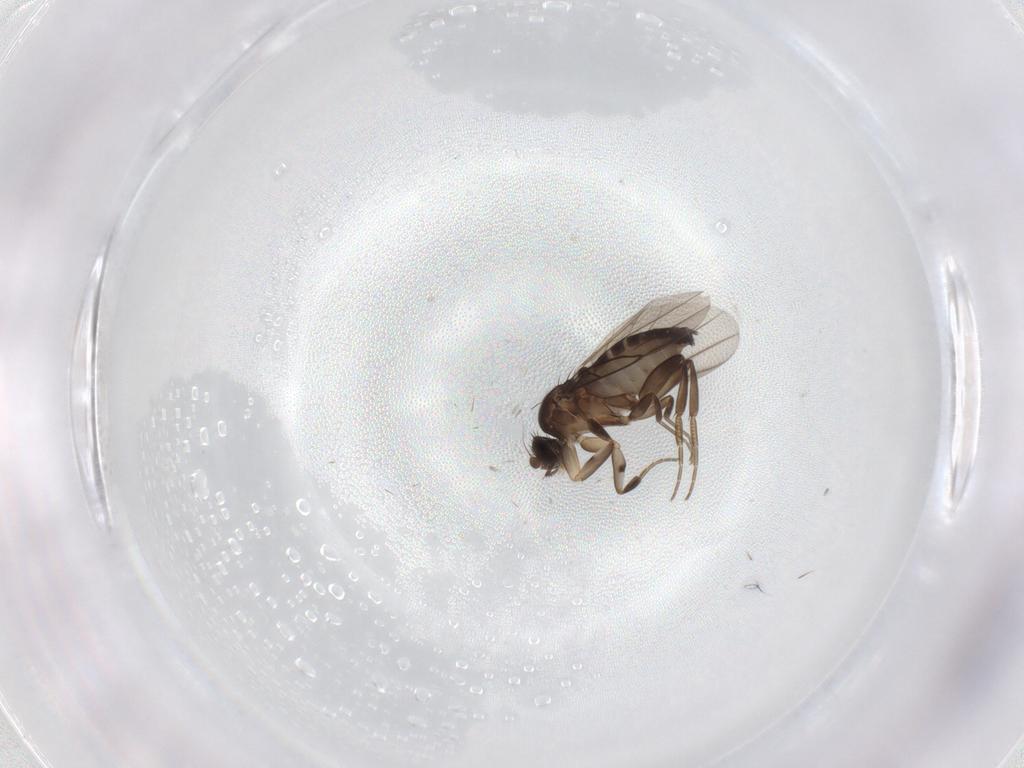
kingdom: Animalia
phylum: Arthropoda
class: Insecta
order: Diptera
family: Phoridae
